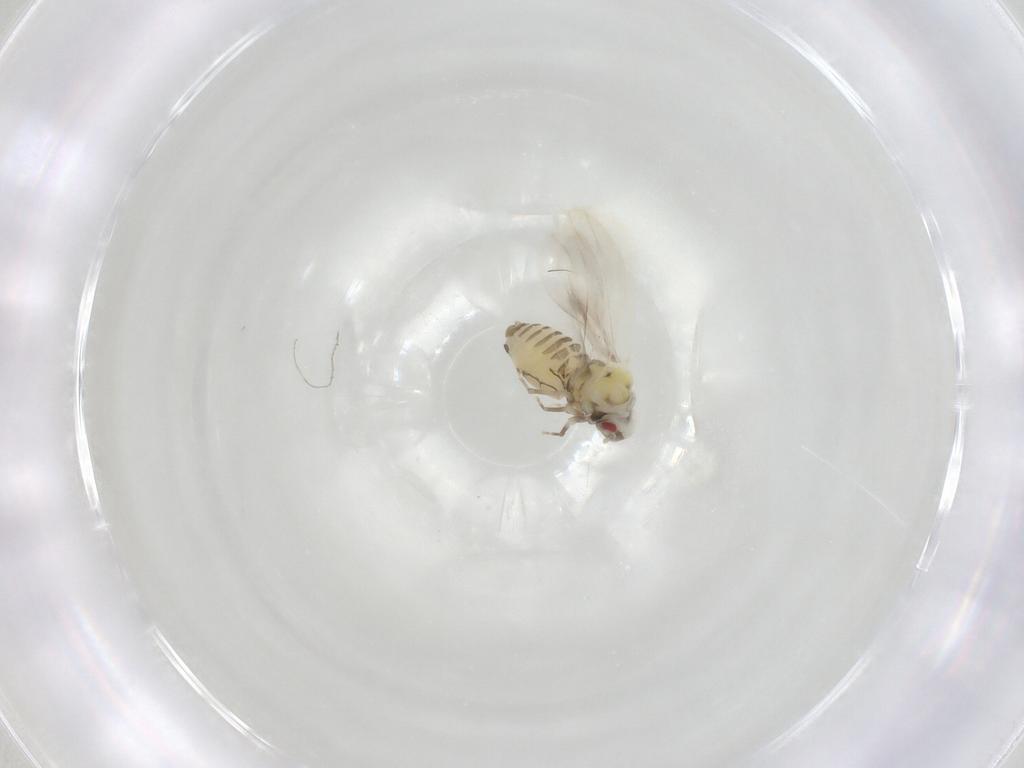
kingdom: Animalia
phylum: Arthropoda
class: Insecta
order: Hemiptera
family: Aleyrodidae
